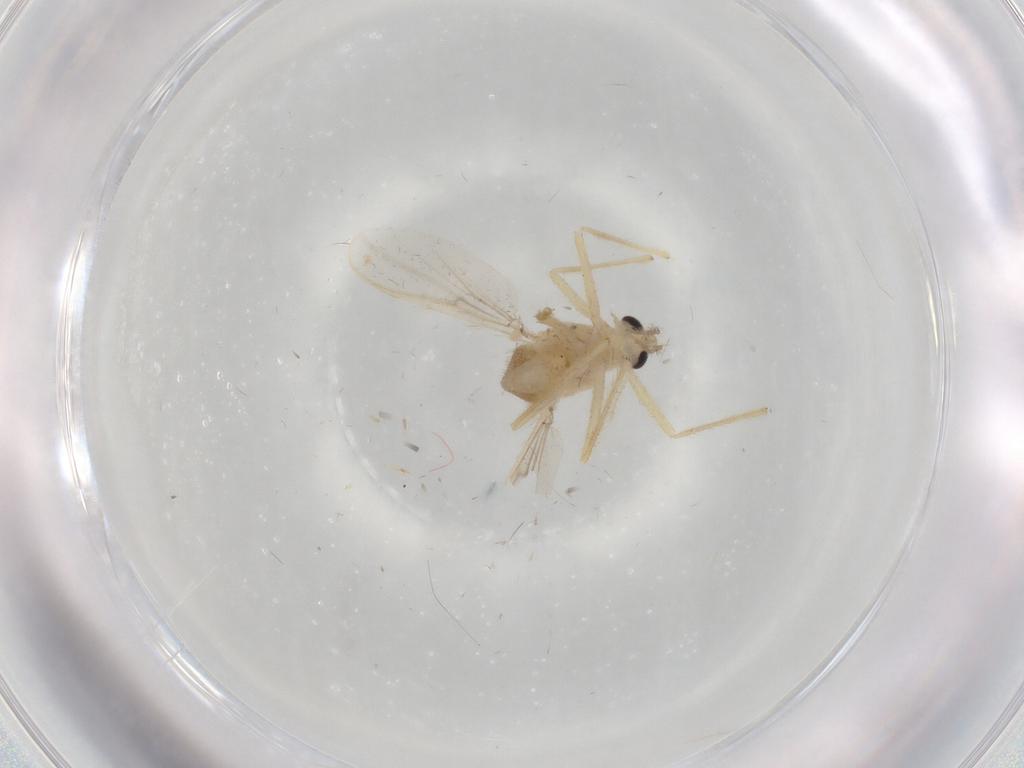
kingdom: Animalia
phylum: Arthropoda
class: Insecta
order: Diptera
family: Chironomidae
